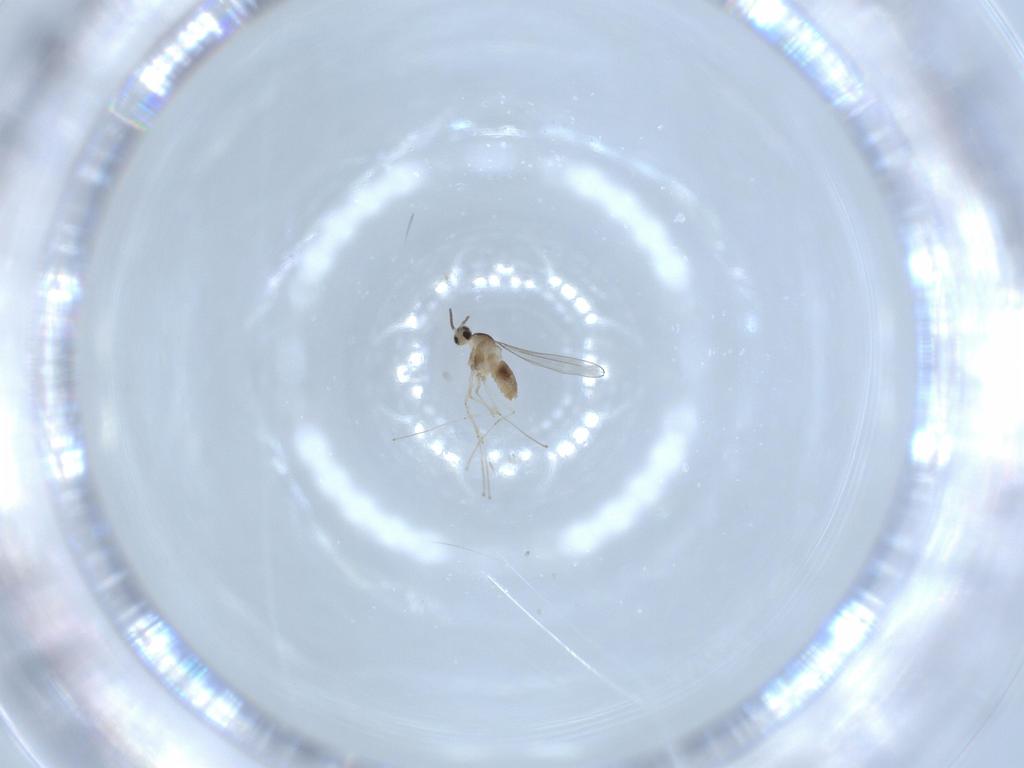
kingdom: Animalia
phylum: Arthropoda
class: Insecta
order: Diptera
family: Cecidomyiidae
